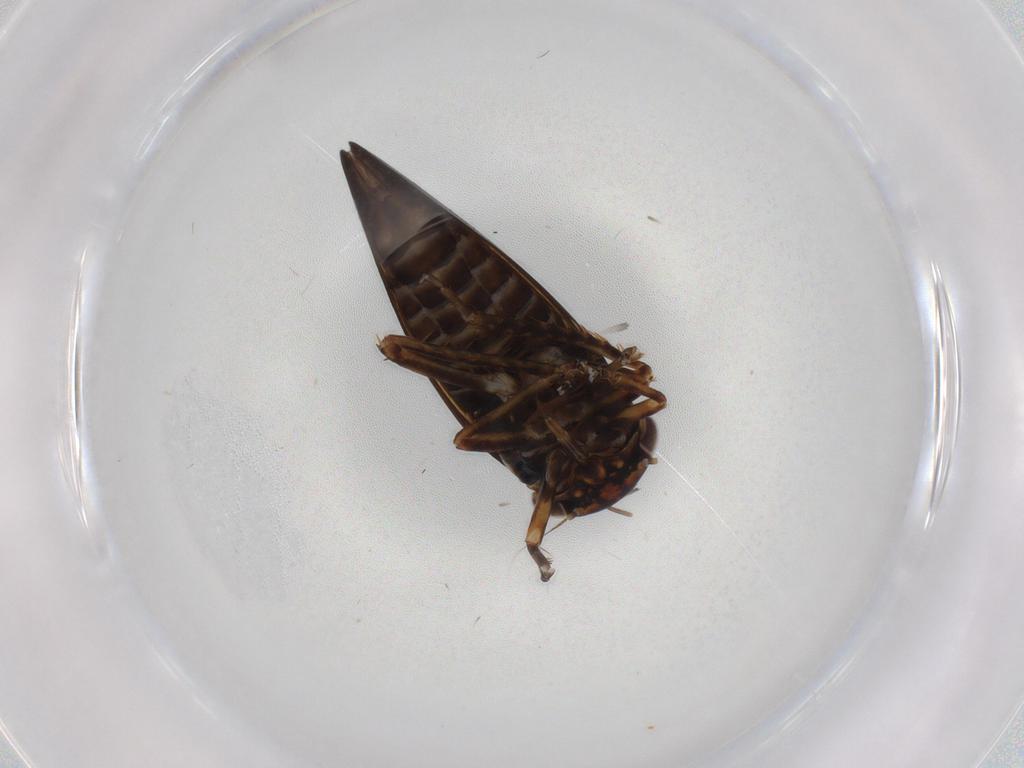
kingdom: Animalia
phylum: Arthropoda
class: Insecta
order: Hemiptera
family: Cicadellidae
